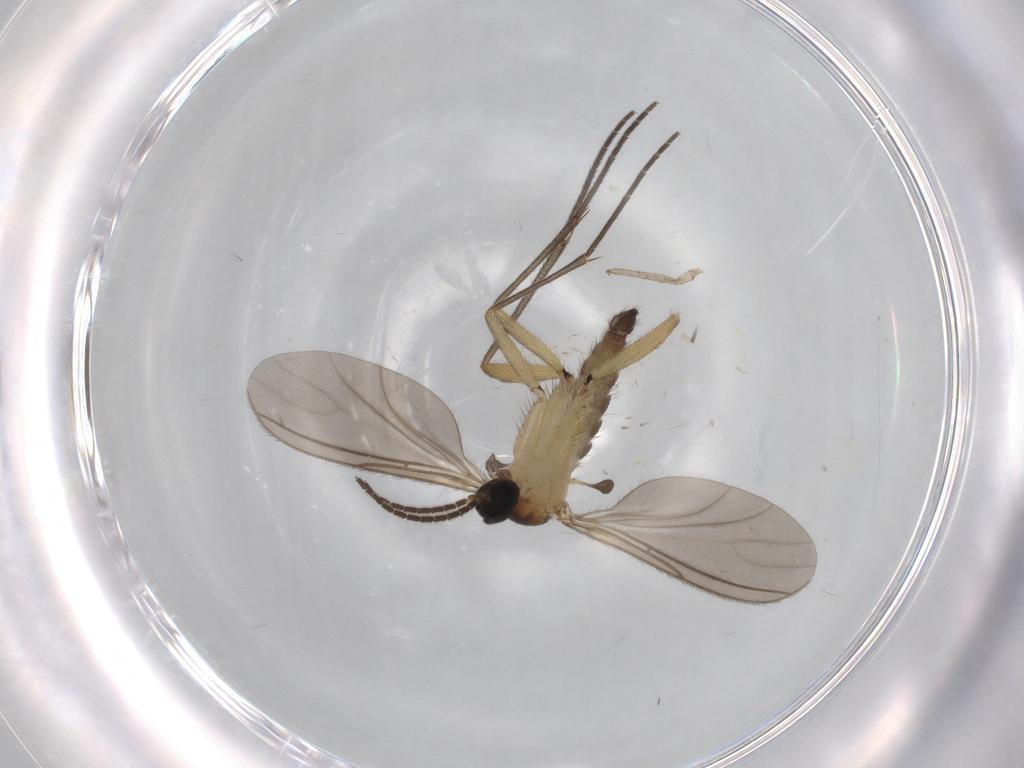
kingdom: Animalia
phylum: Arthropoda
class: Insecta
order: Diptera
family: Sciaridae
